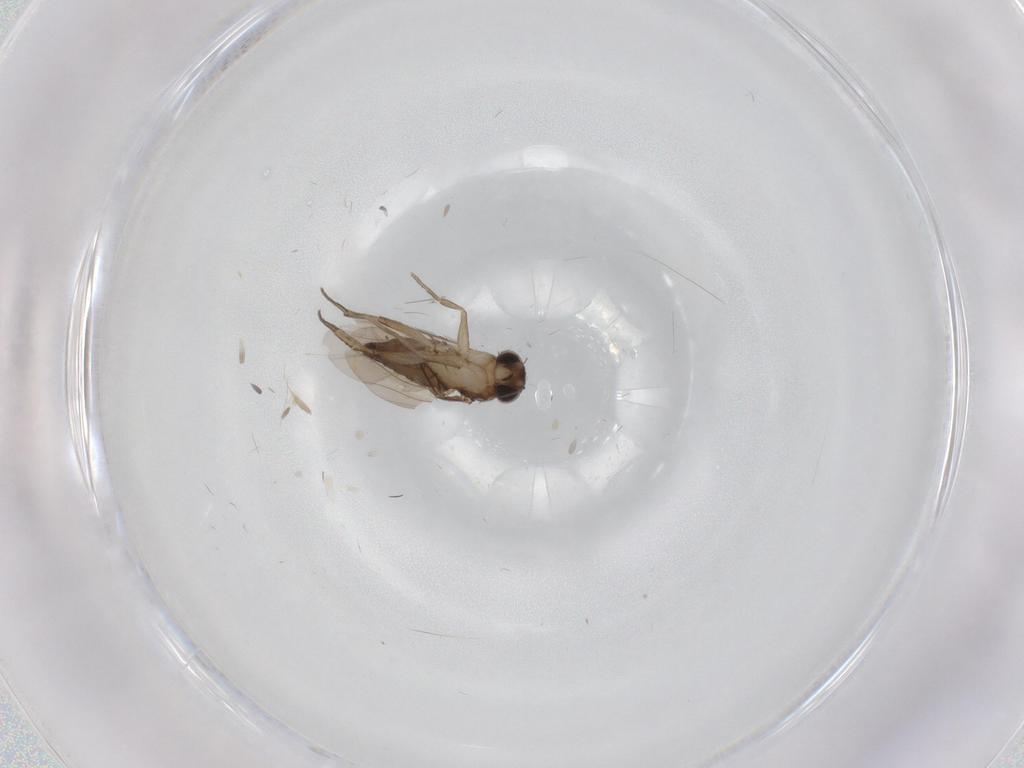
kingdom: Animalia
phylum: Arthropoda
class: Insecta
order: Diptera
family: Phoridae
